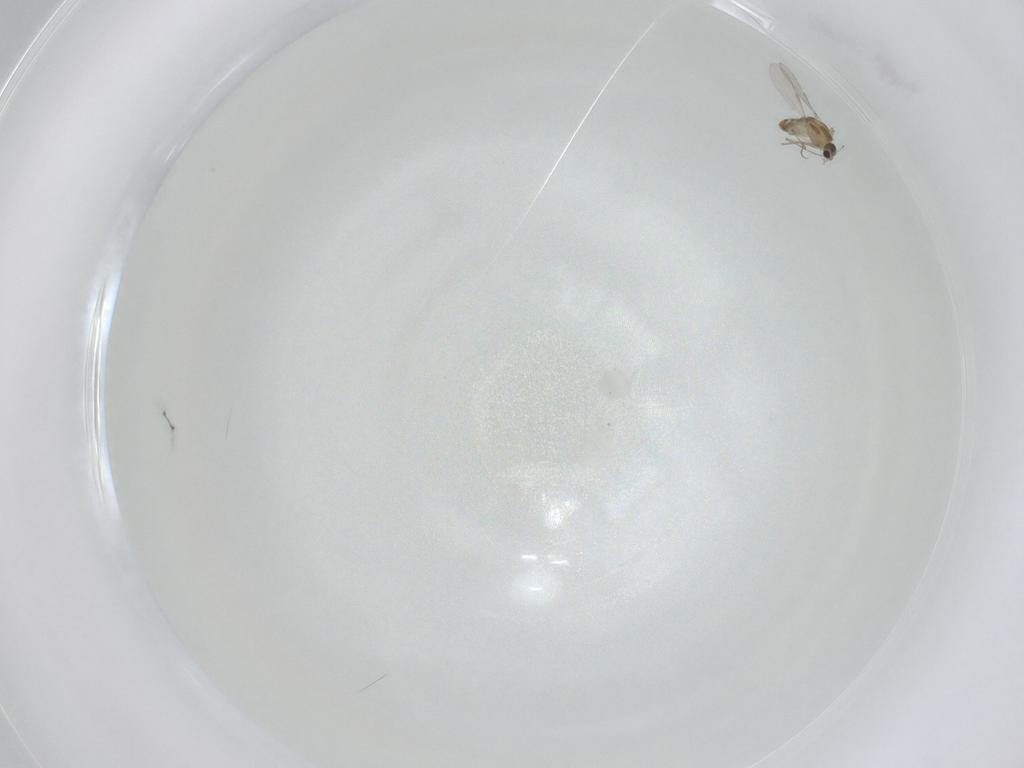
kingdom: Animalia
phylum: Arthropoda
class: Insecta
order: Diptera
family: Chironomidae
